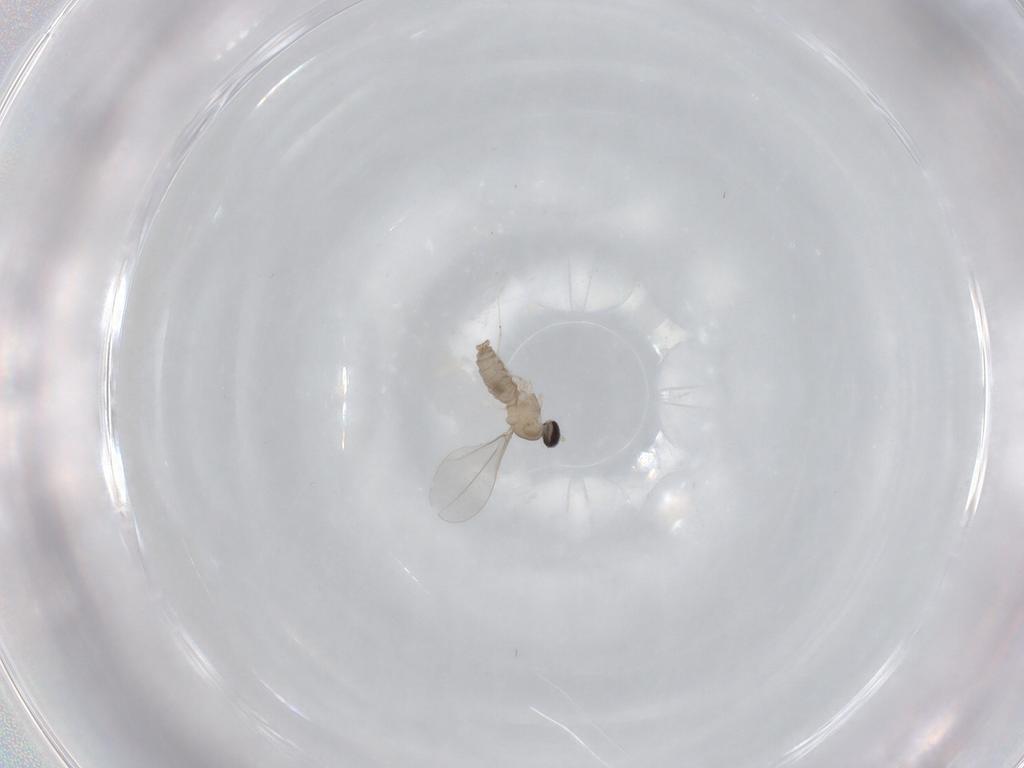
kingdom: Animalia
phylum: Arthropoda
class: Insecta
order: Diptera
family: Cecidomyiidae
